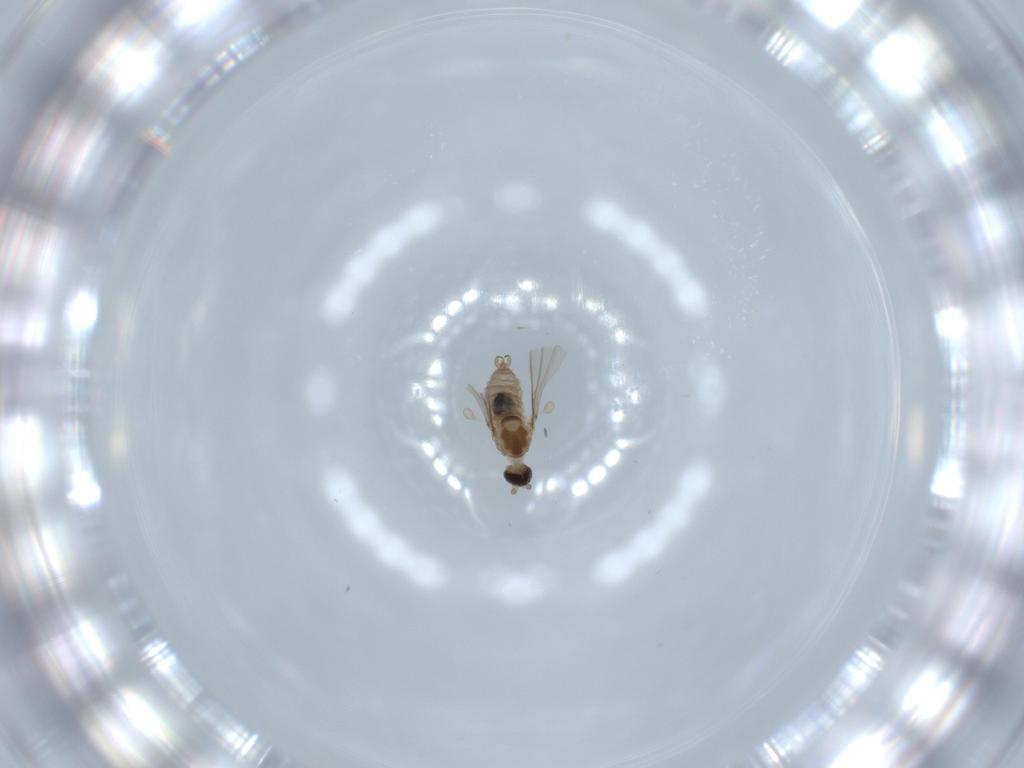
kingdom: Animalia
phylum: Arthropoda
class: Insecta
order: Diptera
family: Cecidomyiidae
